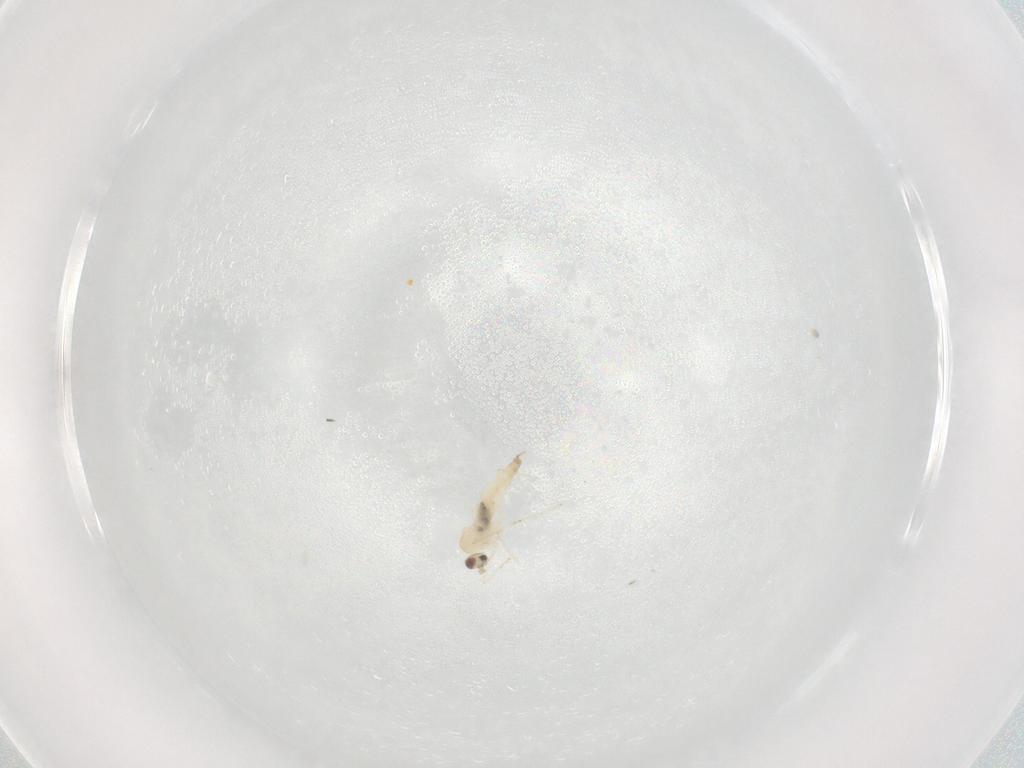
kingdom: Animalia
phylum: Arthropoda
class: Insecta
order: Diptera
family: Cecidomyiidae
